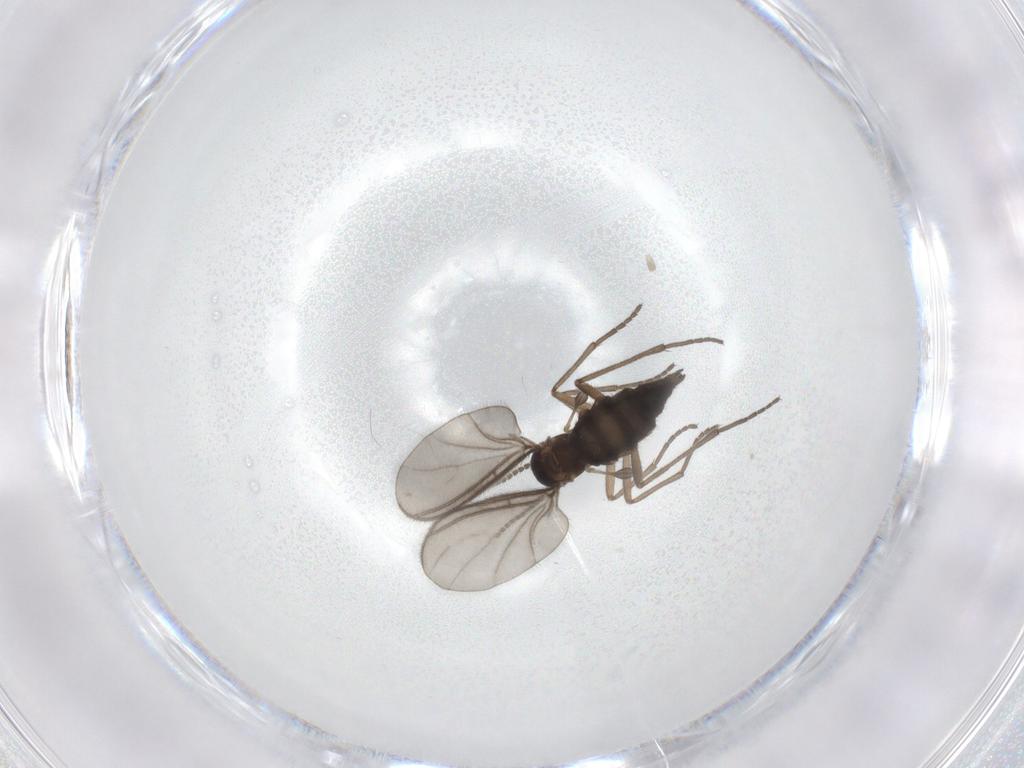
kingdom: Animalia
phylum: Arthropoda
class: Insecta
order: Diptera
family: Sciaridae
